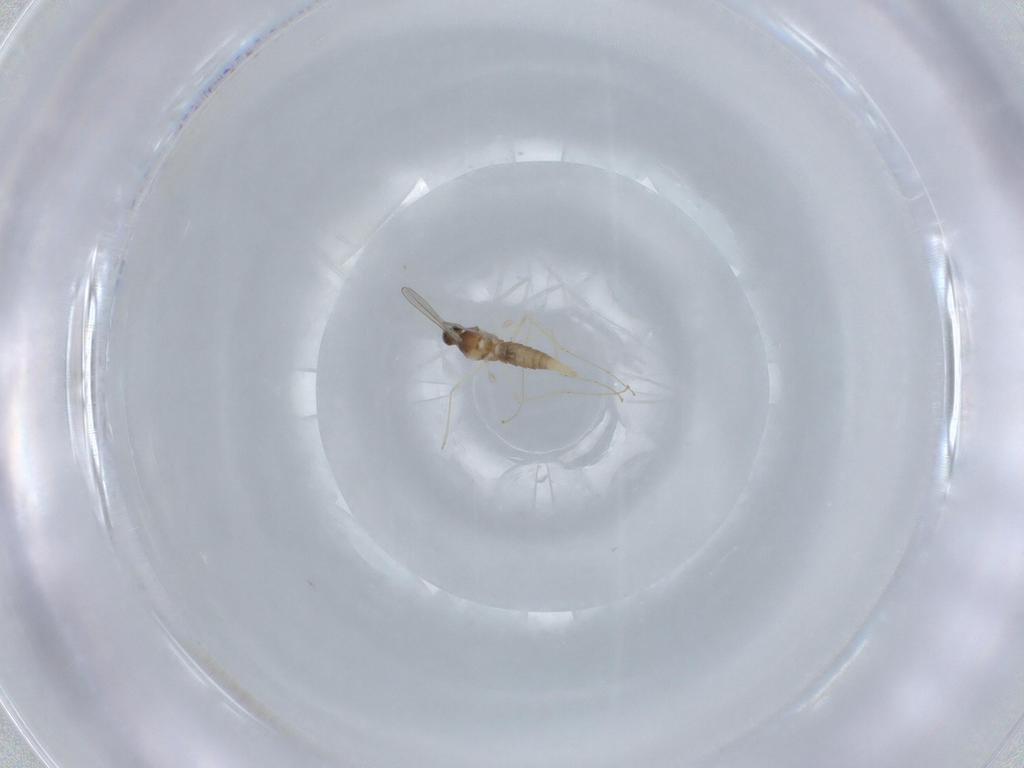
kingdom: Animalia
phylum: Arthropoda
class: Insecta
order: Diptera
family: Cecidomyiidae
